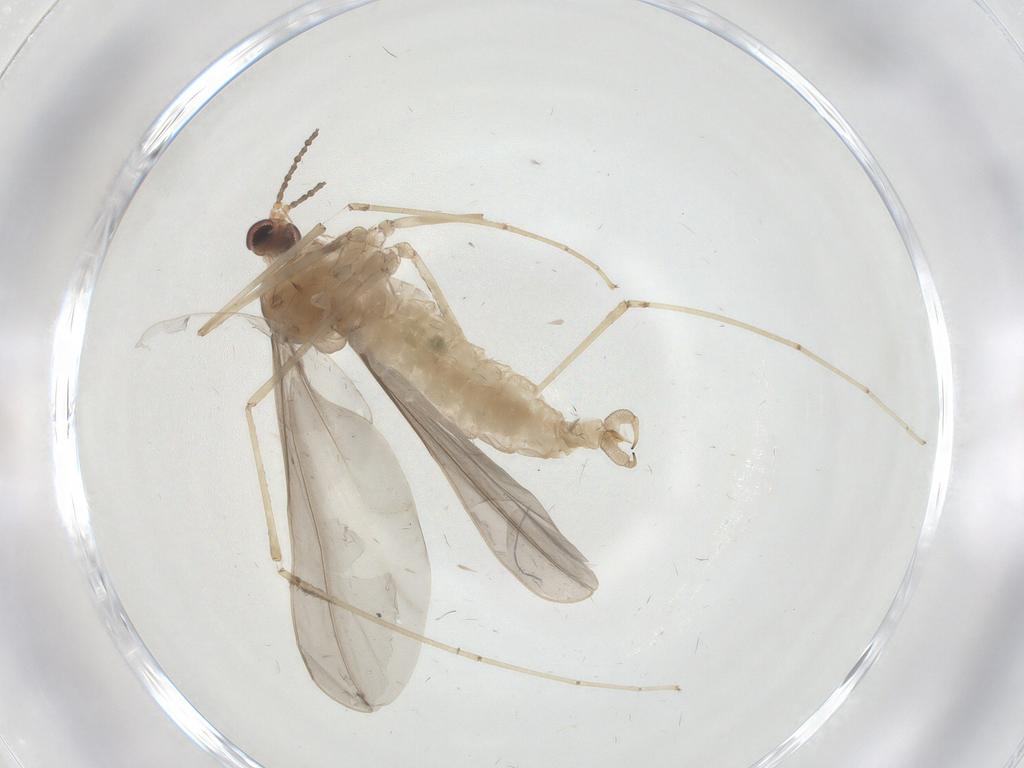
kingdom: Animalia
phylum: Arthropoda
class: Insecta
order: Diptera
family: Cecidomyiidae
